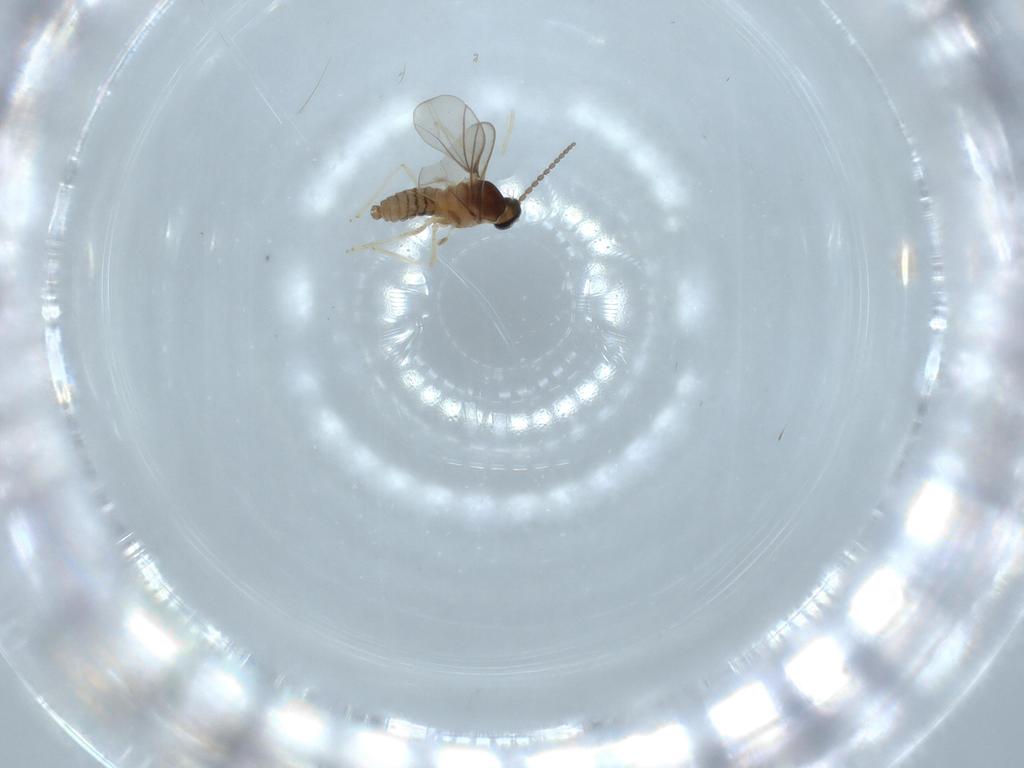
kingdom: Animalia
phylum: Arthropoda
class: Insecta
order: Diptera
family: Cecidomyiidae
